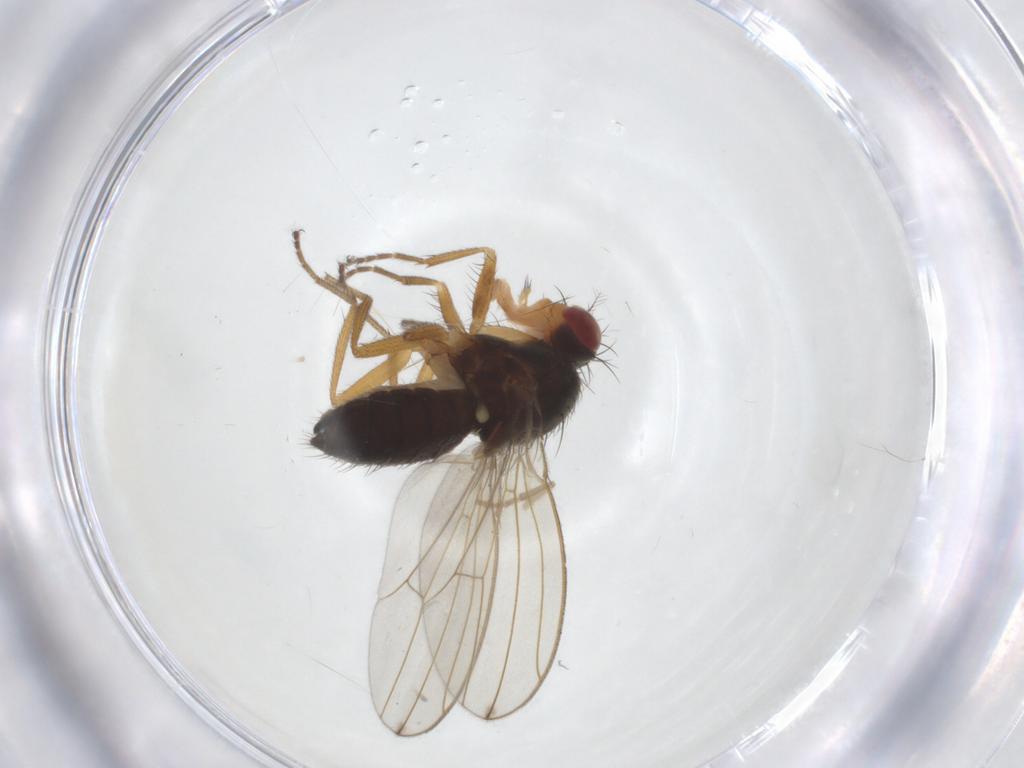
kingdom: Animalia
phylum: Arthropoda
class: Insecta
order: Diptera
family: Drosophilidae
